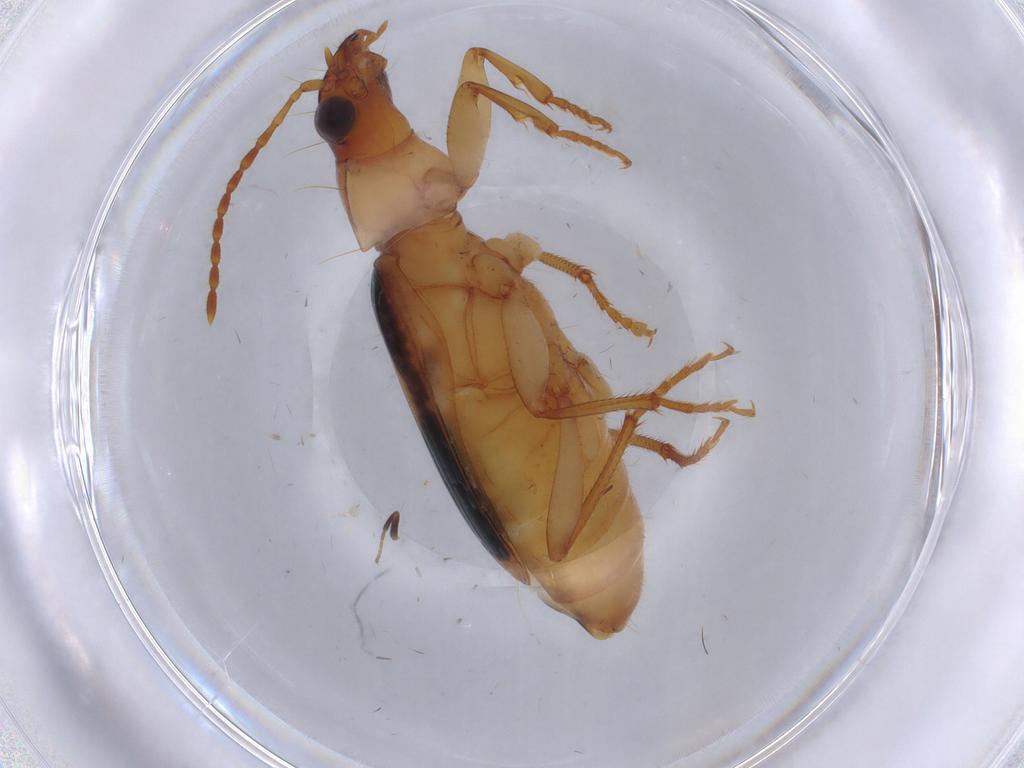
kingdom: Animalia
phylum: Arthropoda
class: Insecta
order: Coleoptera
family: Carabidae
